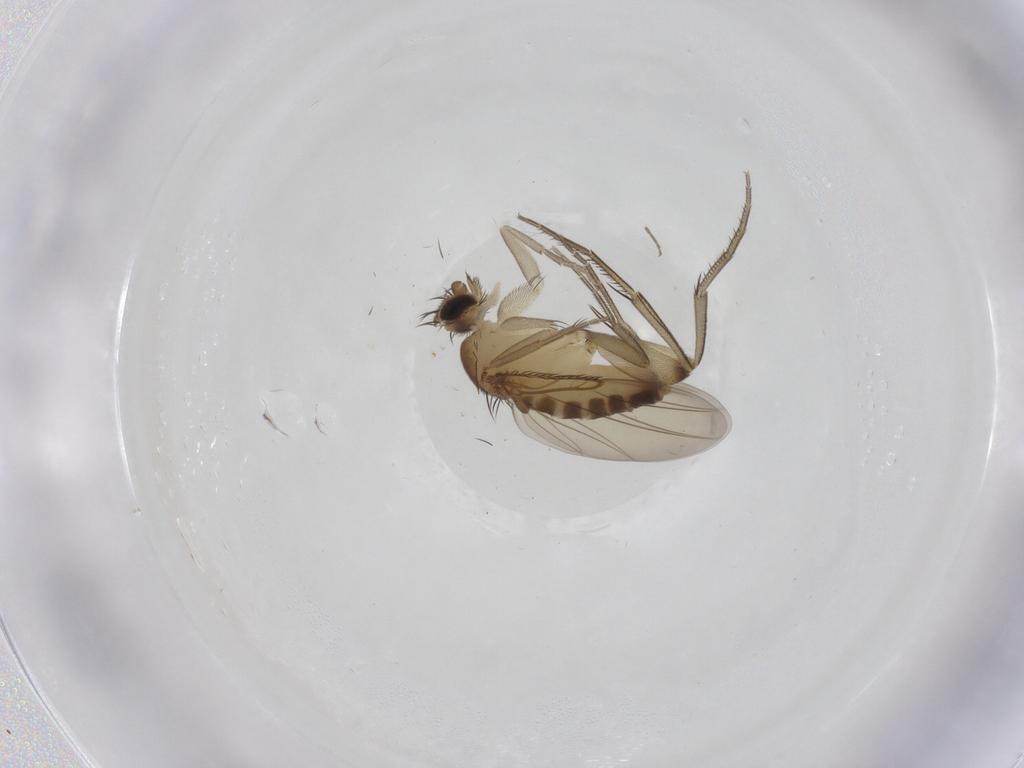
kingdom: Animalia
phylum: Arthropoda
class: Insecta
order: Diptera
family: Phoridae
